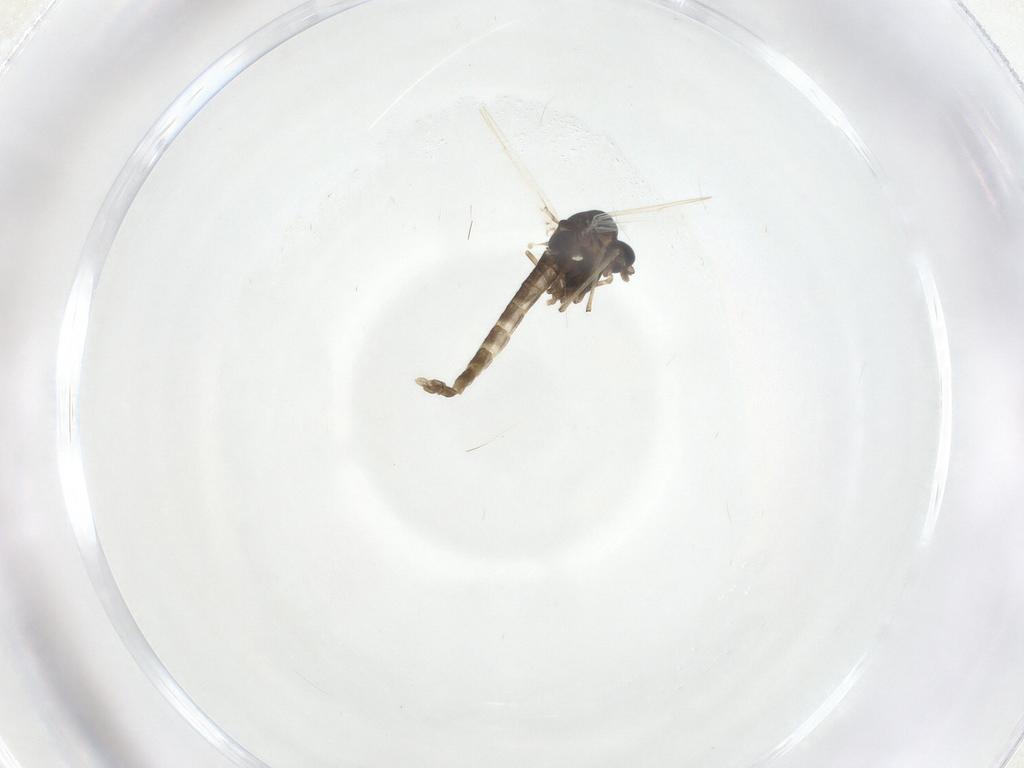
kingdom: Animalia
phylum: Arthropoda
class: Insecta
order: Diptera
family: Chironomidae
